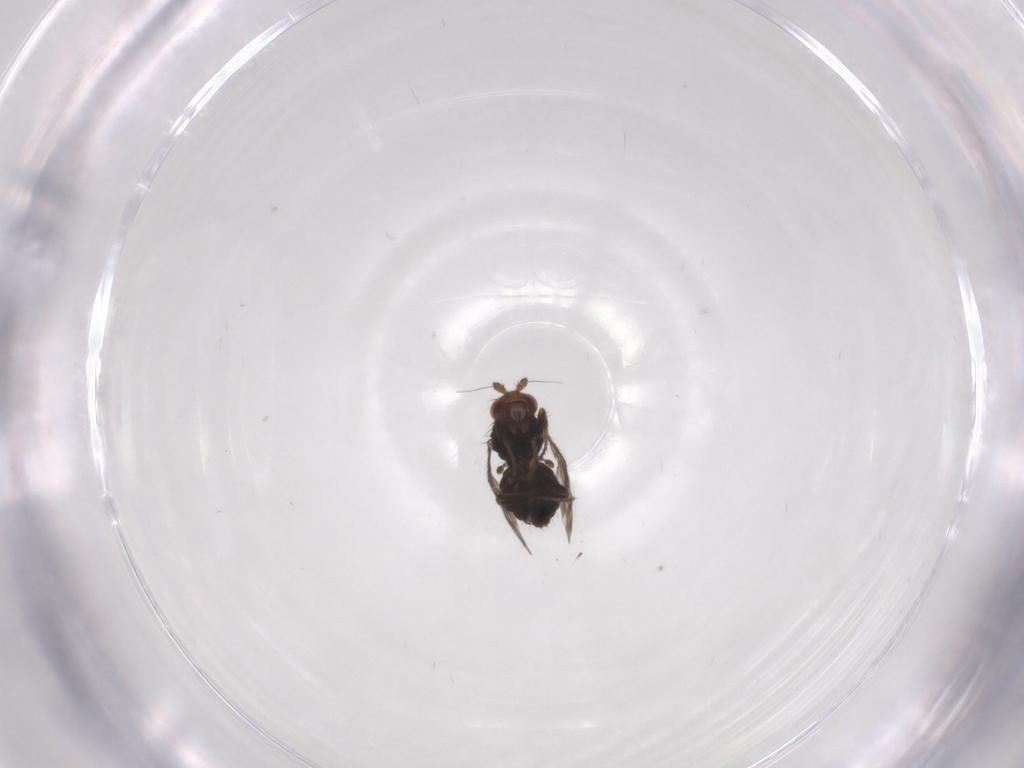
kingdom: Animalia
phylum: Arthropoda
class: Insecta
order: Diptera
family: Sphaeroceridae
